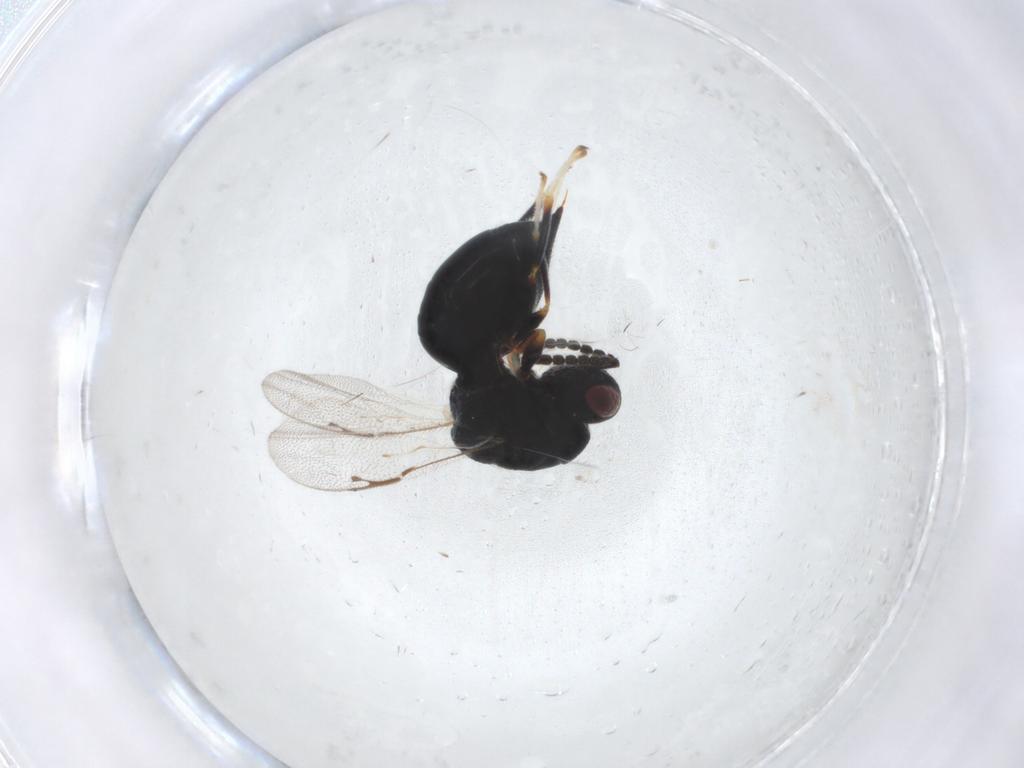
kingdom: Animalia
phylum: Arthropoda
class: Insecta
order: Hymenoptera
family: Eurytomidae
